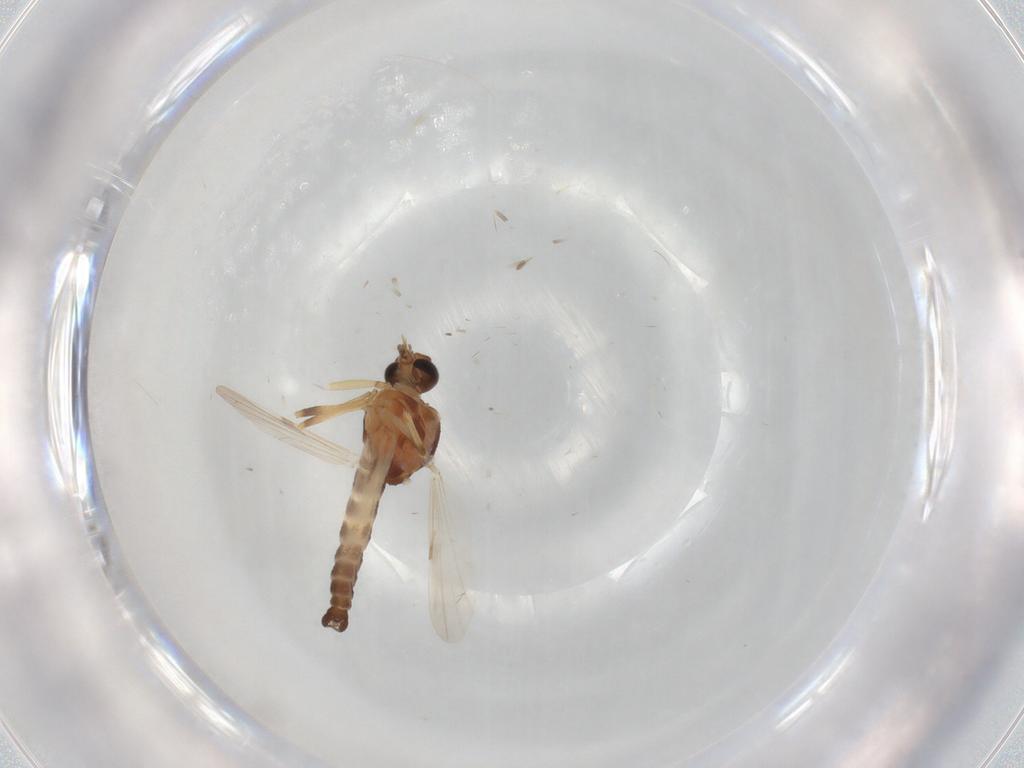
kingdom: Animalia
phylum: Arthropoda
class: Insecta
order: Diptera
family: Ceratopogonidae
